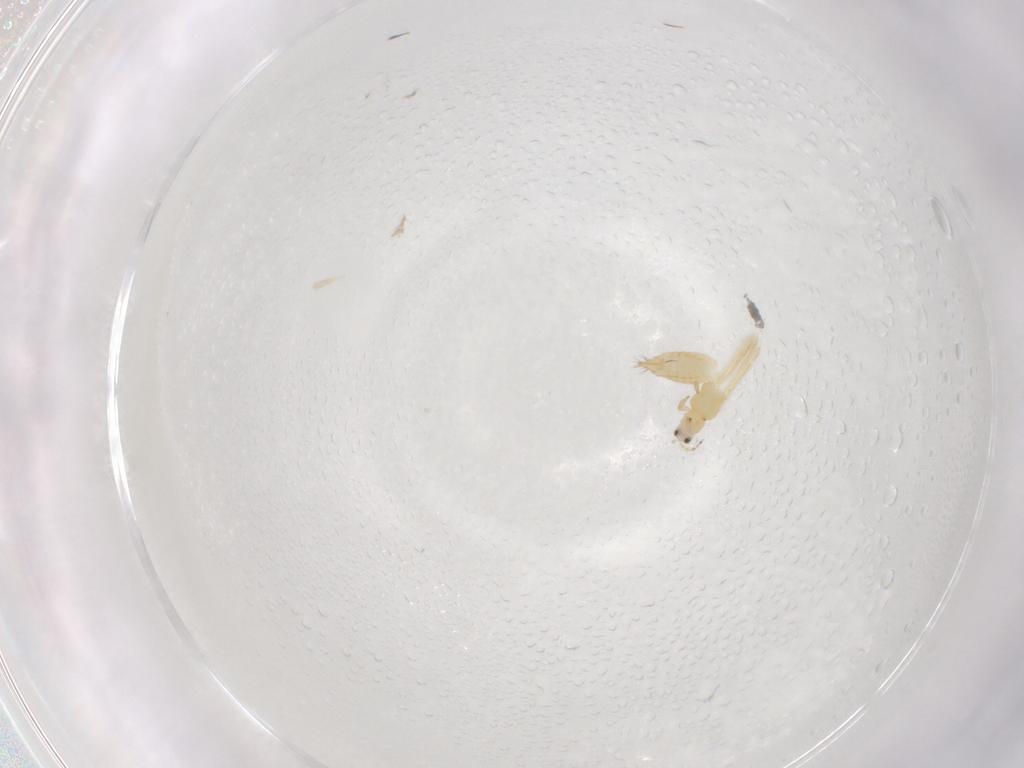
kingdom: Animalia
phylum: Arthropoda
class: Insecta
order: Thysanoptera
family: Thripidae
